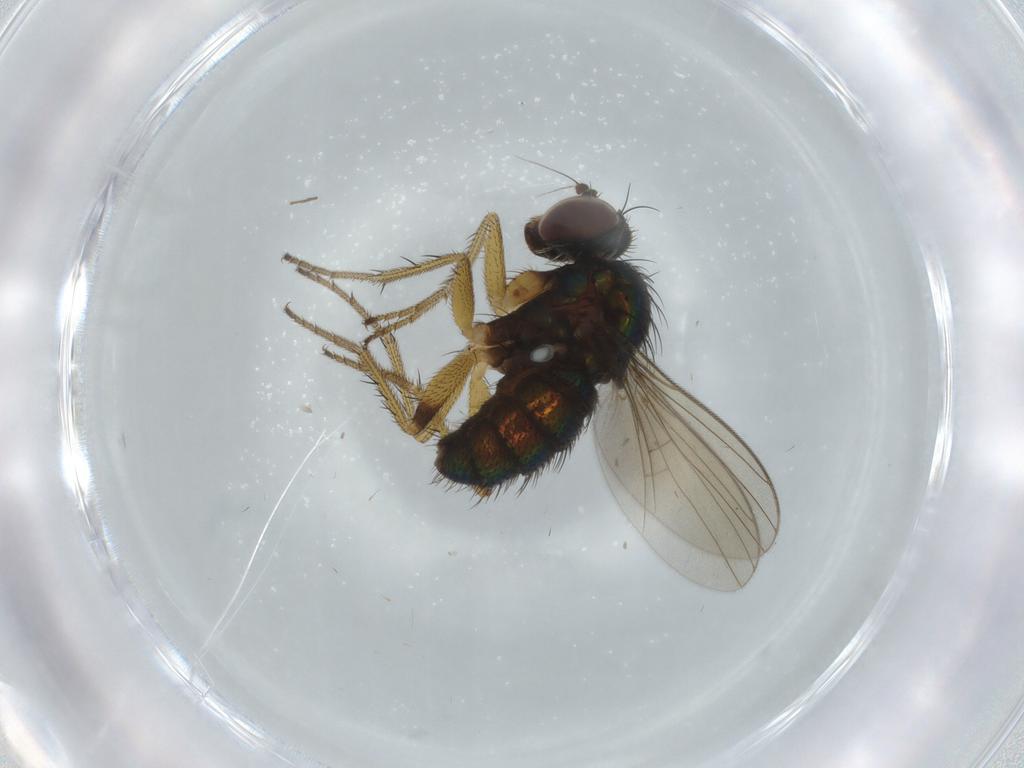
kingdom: Animalia
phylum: Arthropoda
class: Insecta
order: Diptera
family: Dolichopodidae
